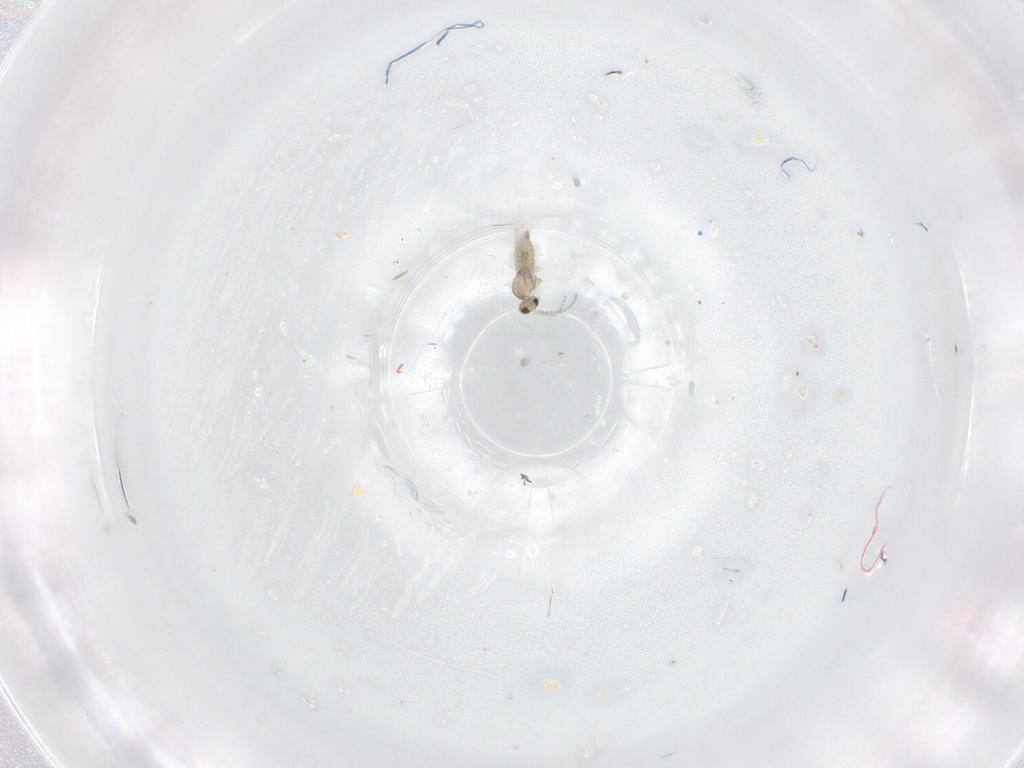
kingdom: Animalia
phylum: Arthropoda
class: Insecta
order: Diptera
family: Cecidomyiidae
